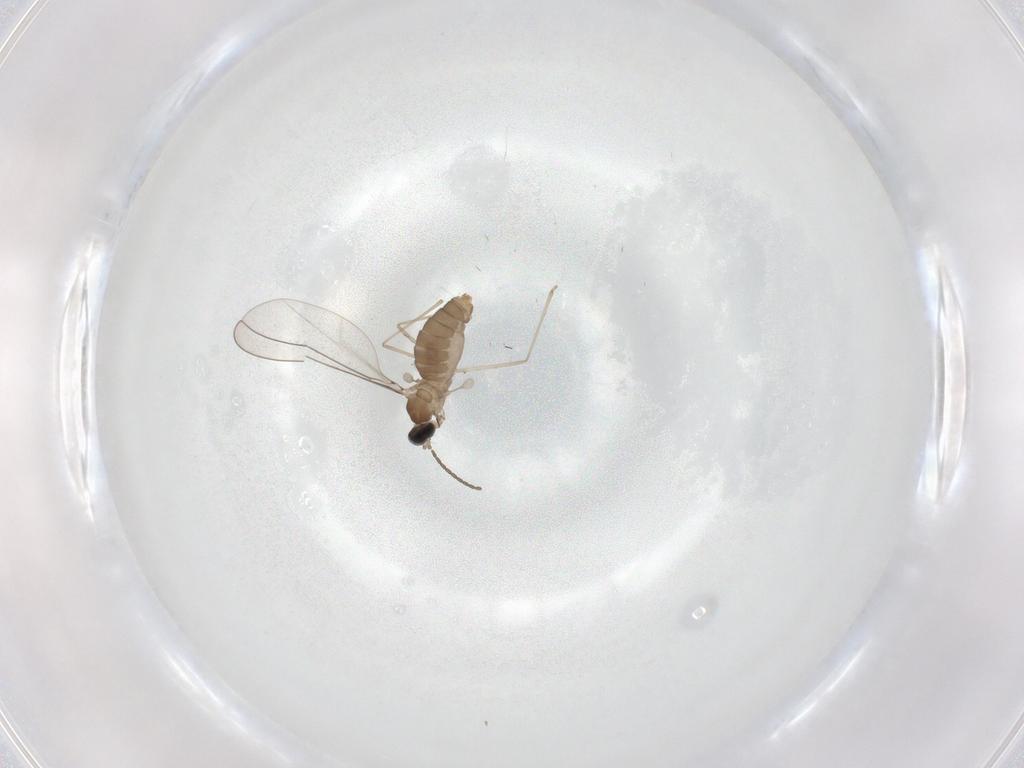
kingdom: Animalia
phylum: Arthropoda
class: Insecta
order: Diptera
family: Cecidomyiidae
